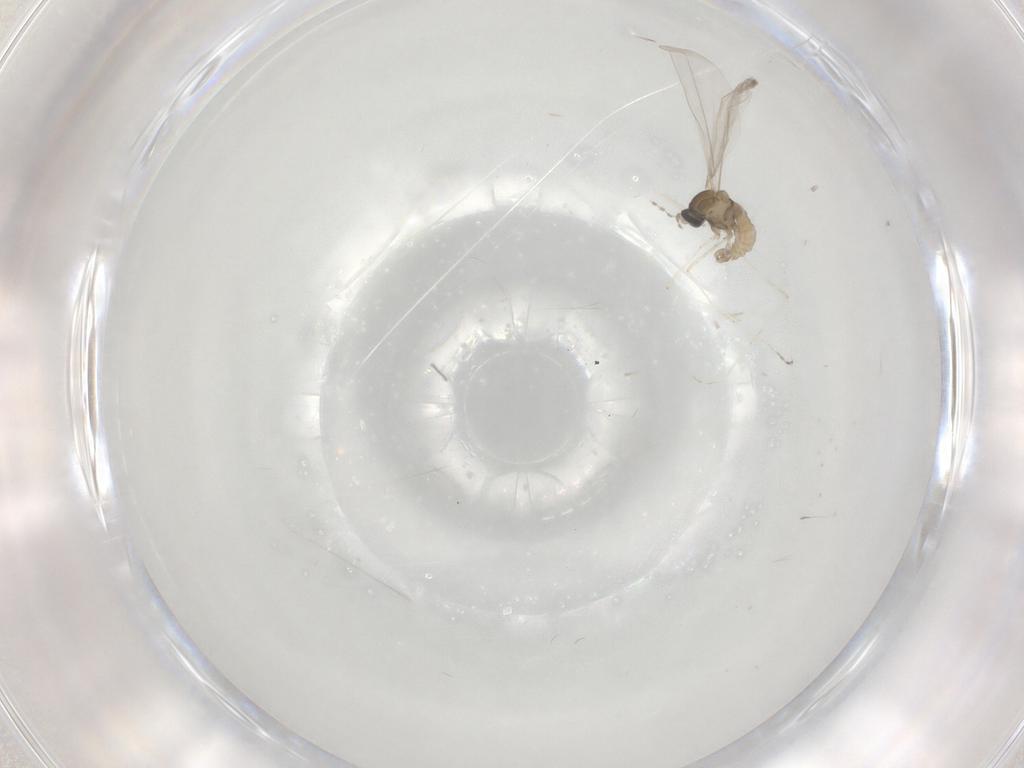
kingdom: Animalia
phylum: Arthropoda
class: Insecta
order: Diptera
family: Cecidomyiidae
